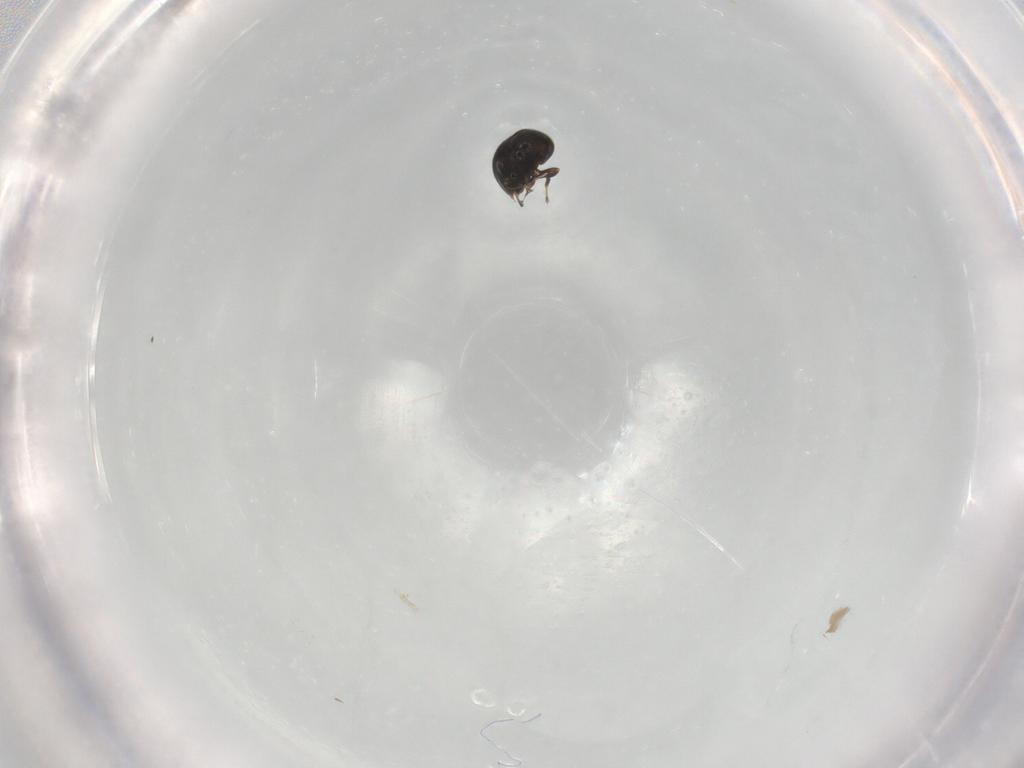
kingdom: Animalia
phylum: Arthropoda
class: Insecta
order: Hymenoptera
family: Scelionidae
